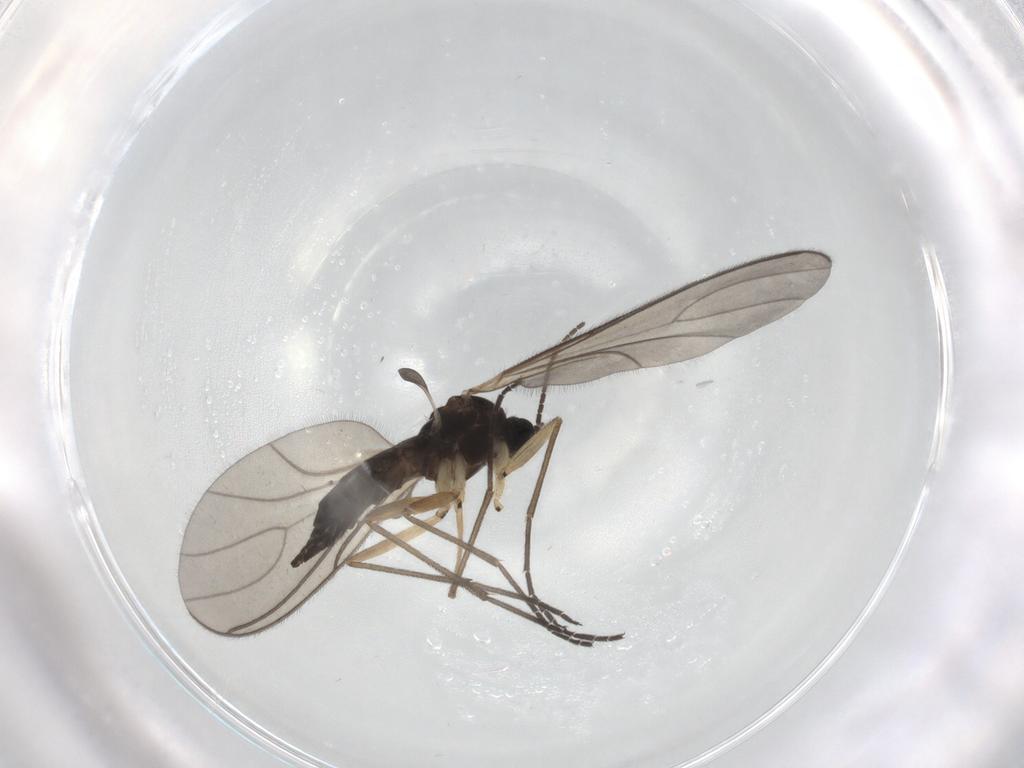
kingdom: Animalia
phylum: Arthropoda
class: Insecta
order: Diptera
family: Sciaridae
